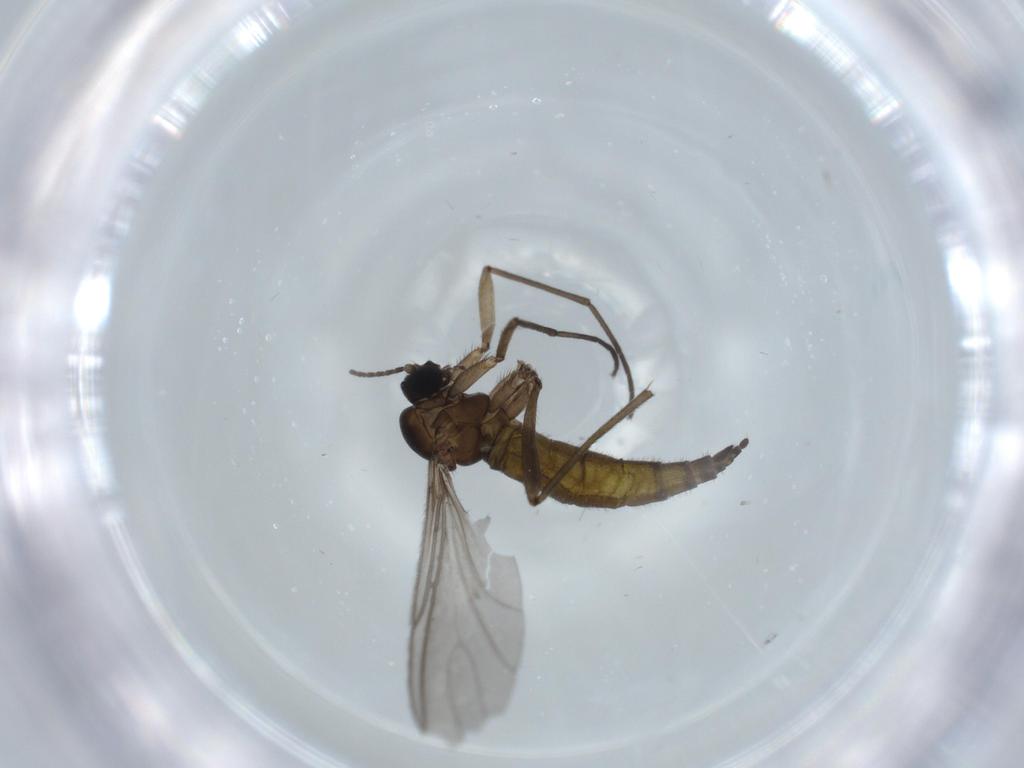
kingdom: Animalia
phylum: Arthropoda
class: Insecta
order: Diptera
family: Sciaridae
